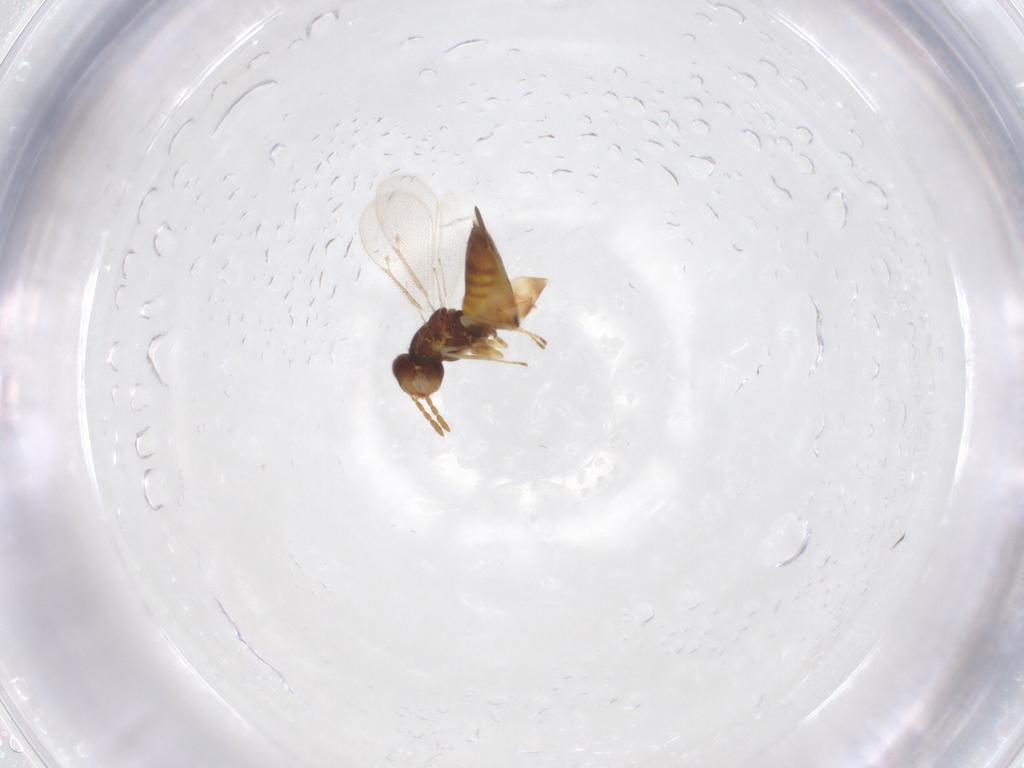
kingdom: Animalia
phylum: Arthropoda
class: Insecta
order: Hymenoptera
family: Eulophidae
